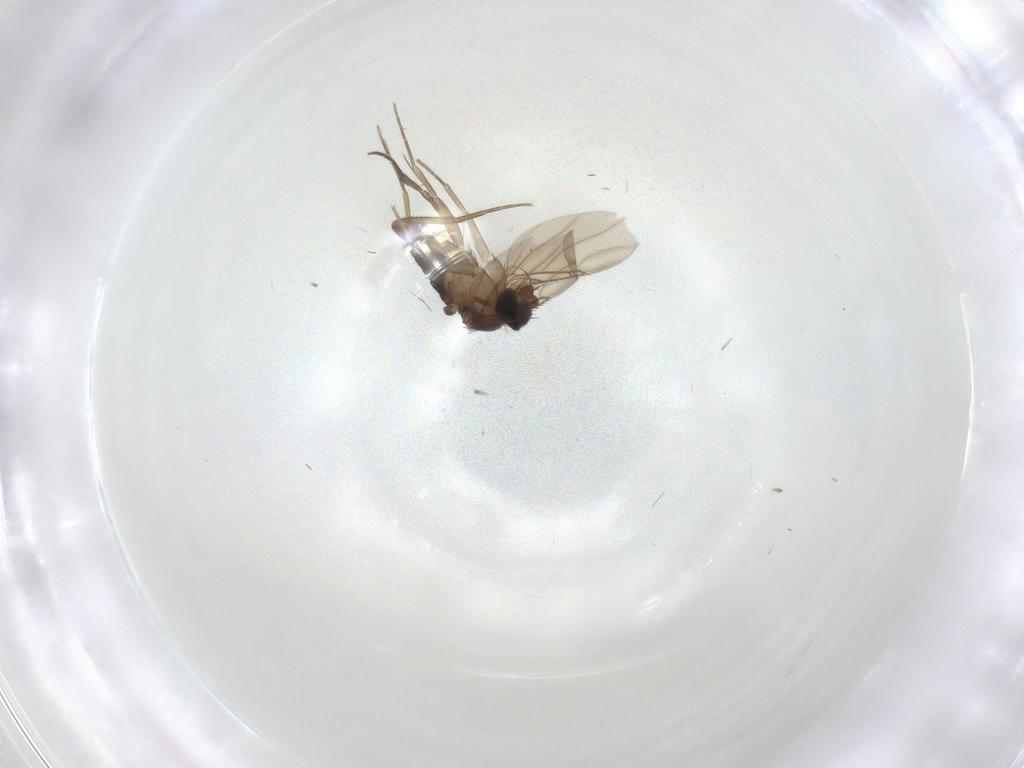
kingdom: Animalia
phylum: Arthropoda
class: Insecta
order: Diptera
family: Phoridae
